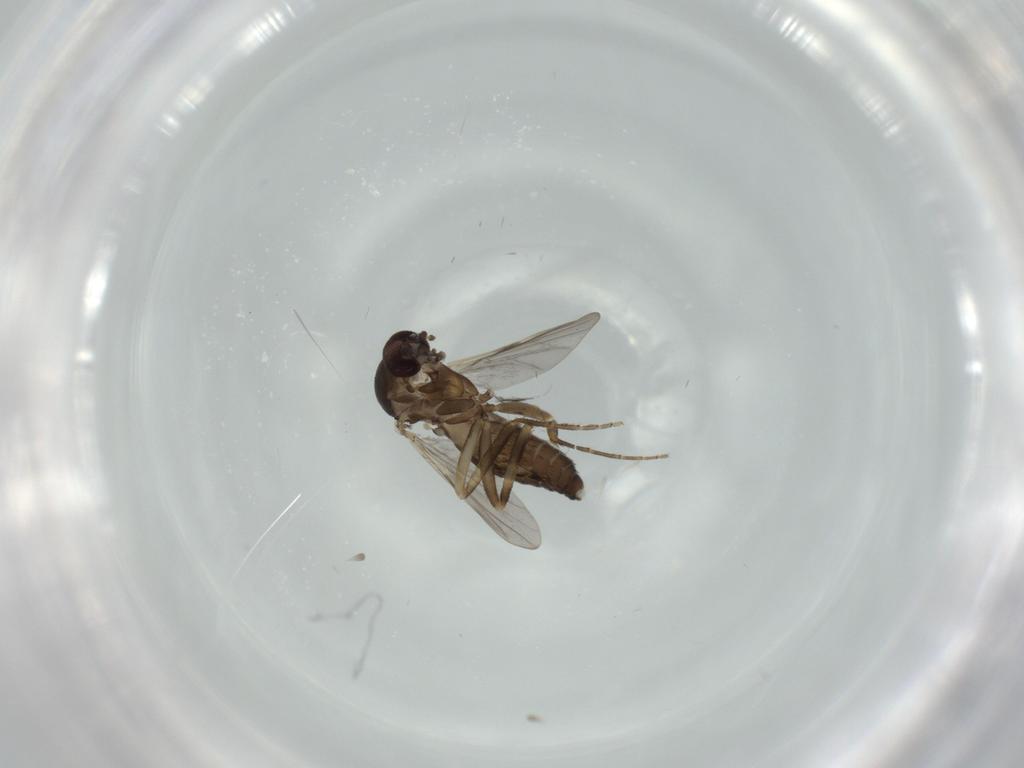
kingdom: Animalia
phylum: Arthropoda
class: Insecta
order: Diptera
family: Ceratopogonidae
